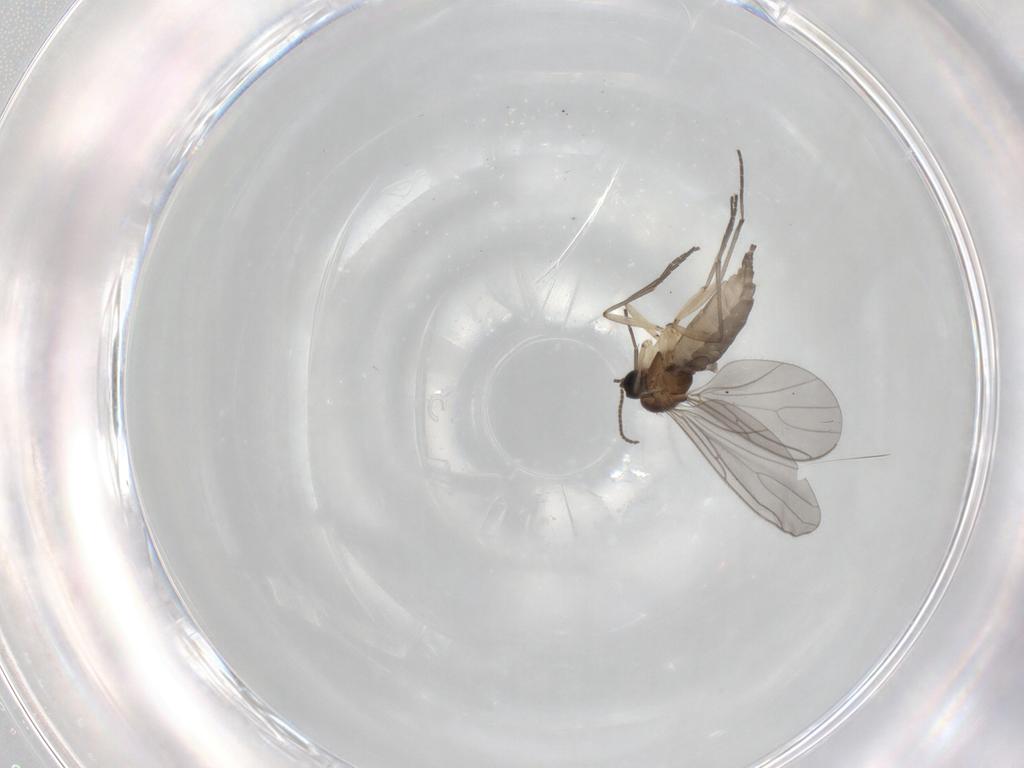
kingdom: Animalia
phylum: Arthropoda
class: Insecta
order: Diptera
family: Sciaridae
